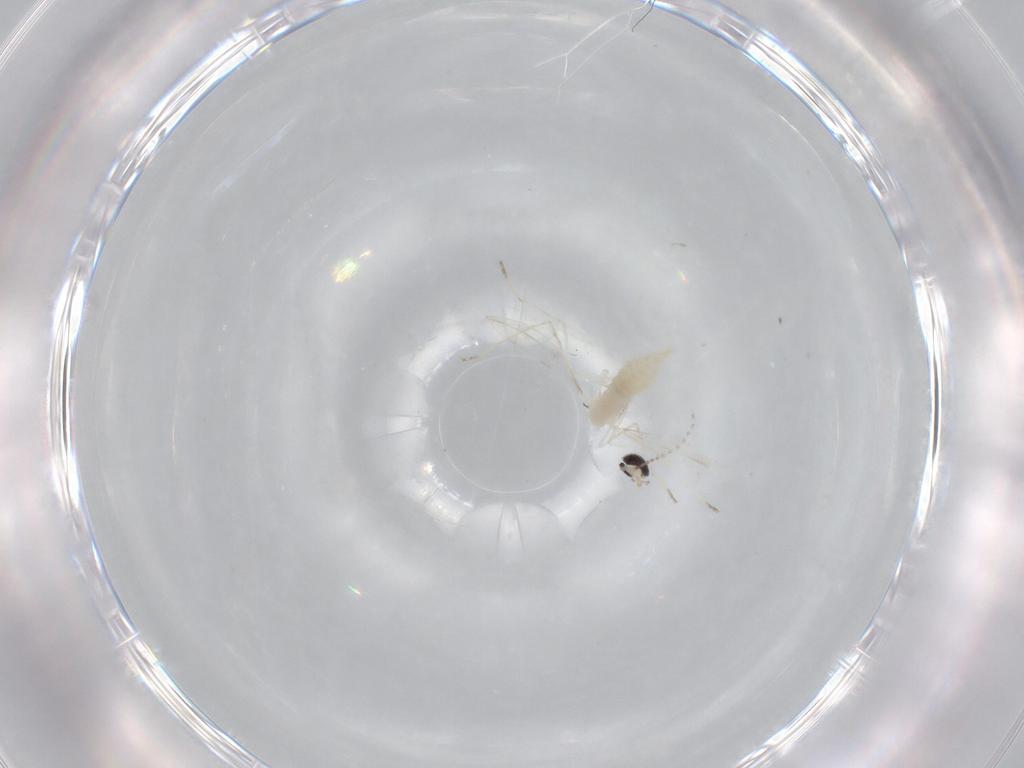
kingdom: Animalia
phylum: Arthropoda
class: Insecta
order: Diptera
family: Cecidomyiidae
